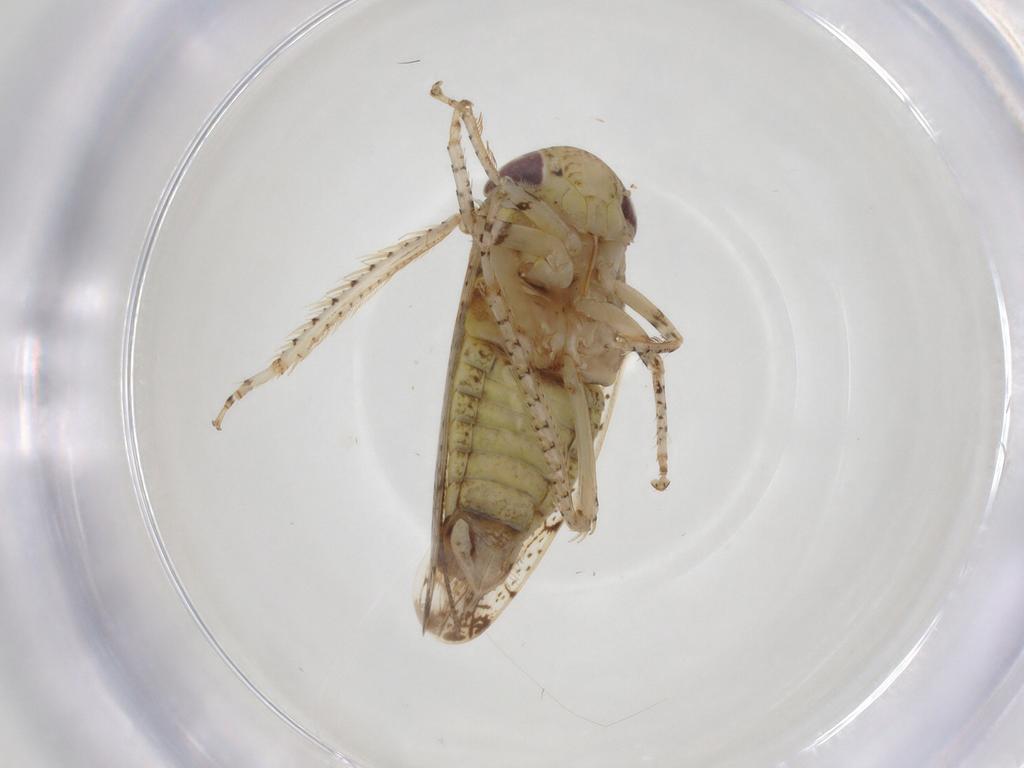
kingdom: Animalia
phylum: Arthropoda
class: Insecta
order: Hemiptera
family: Cicadellidae
